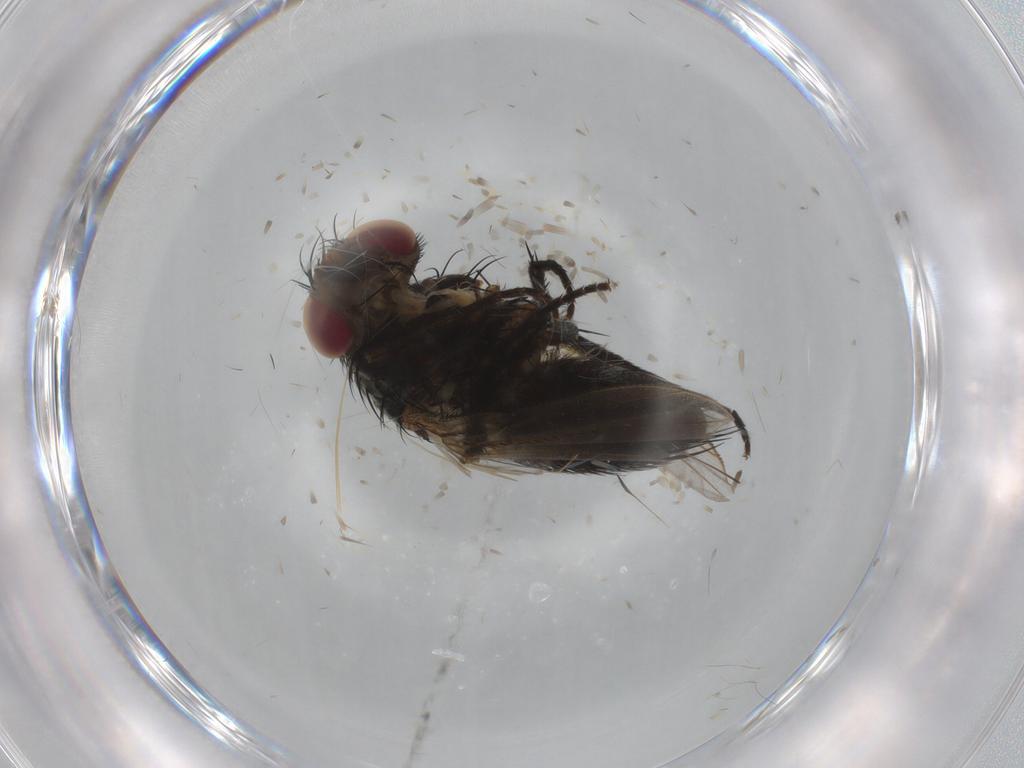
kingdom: Animalia
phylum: Arthropoda
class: Insecta
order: Diptera
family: Tachinidae
